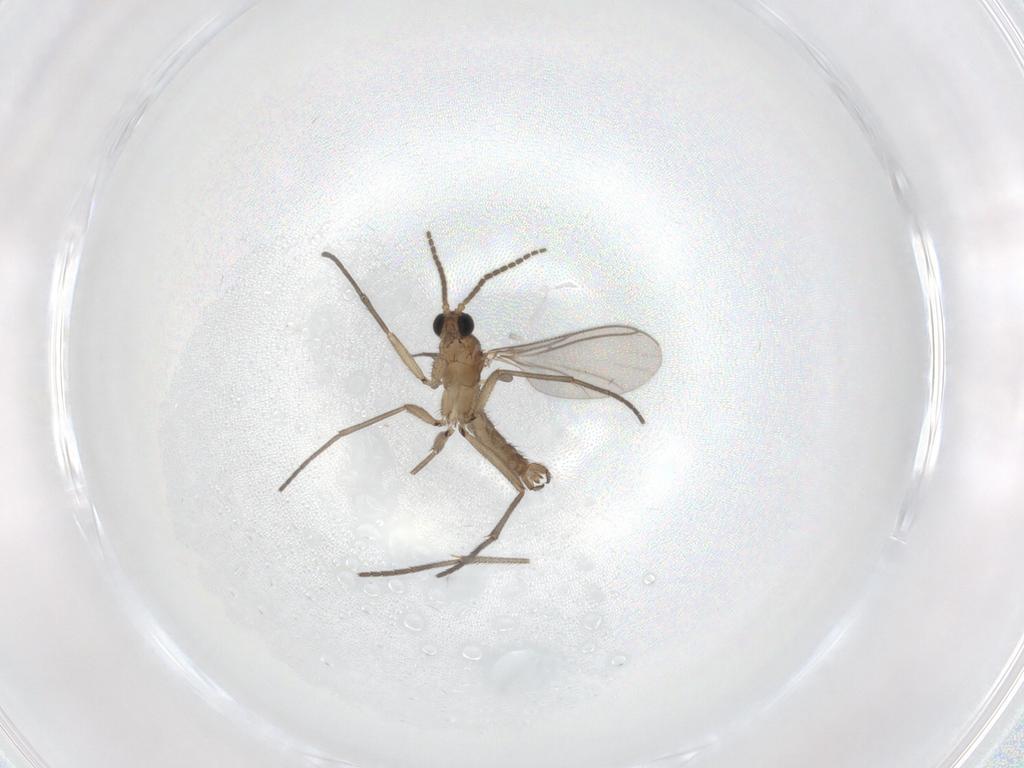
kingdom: Animalia
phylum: Arthropoda
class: Insecta
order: Diptera
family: Sciaridae
